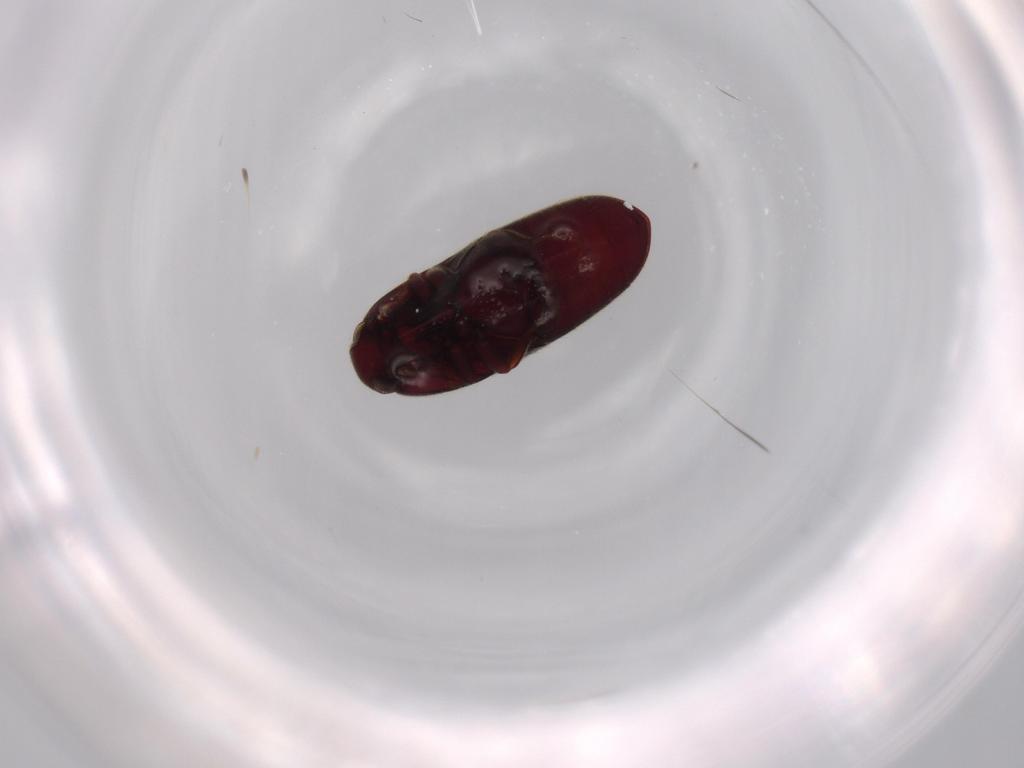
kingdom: Animalia
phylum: Arthropoda
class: Insecta
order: Coleoptera
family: Throscidae
